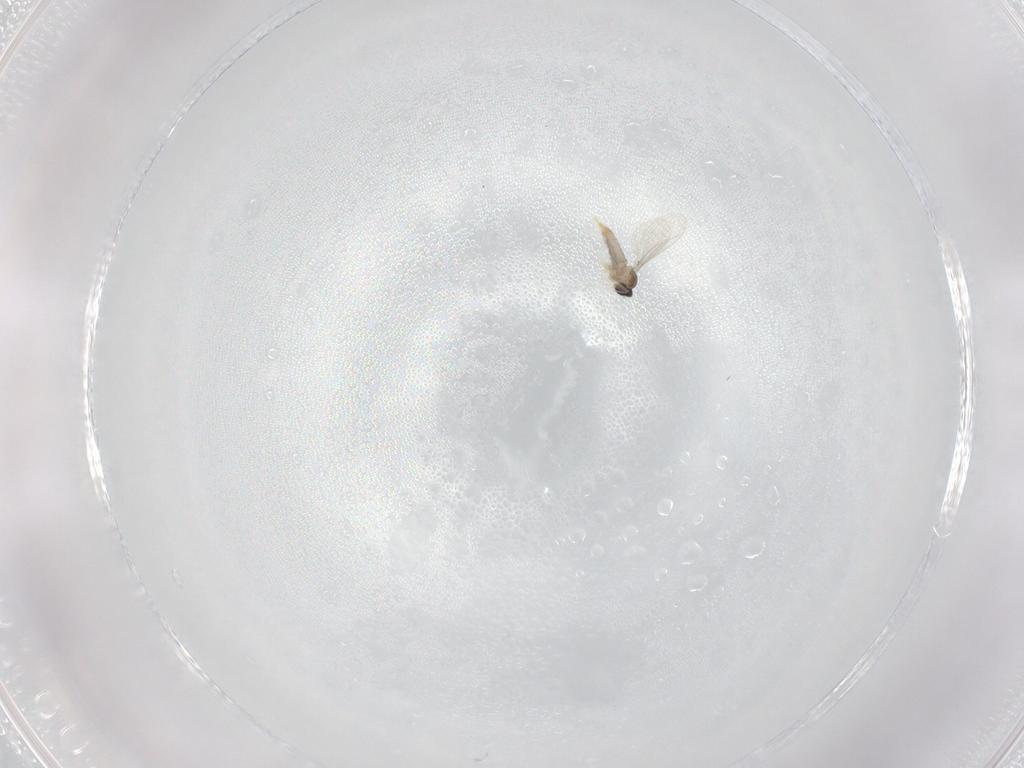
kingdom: Animalia
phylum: Arthropoda
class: Insecta
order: Diptera
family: Cecidomyiidae
